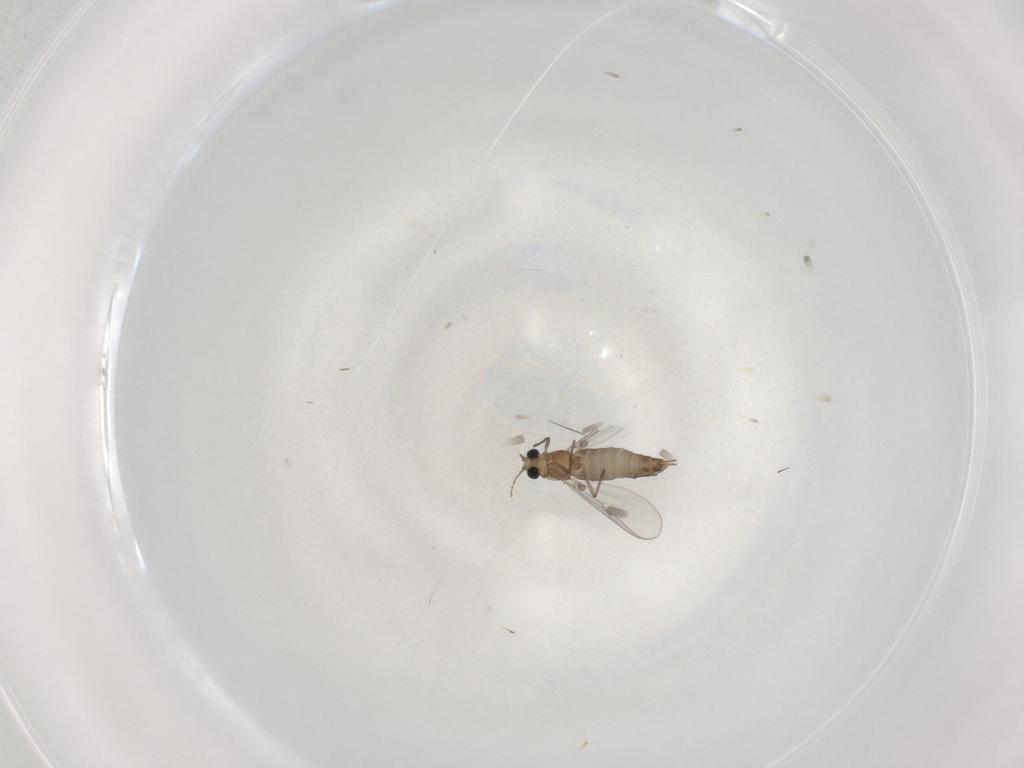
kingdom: Animalia
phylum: Arthropoda
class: Insecta
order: Diptera
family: Chironomidae
